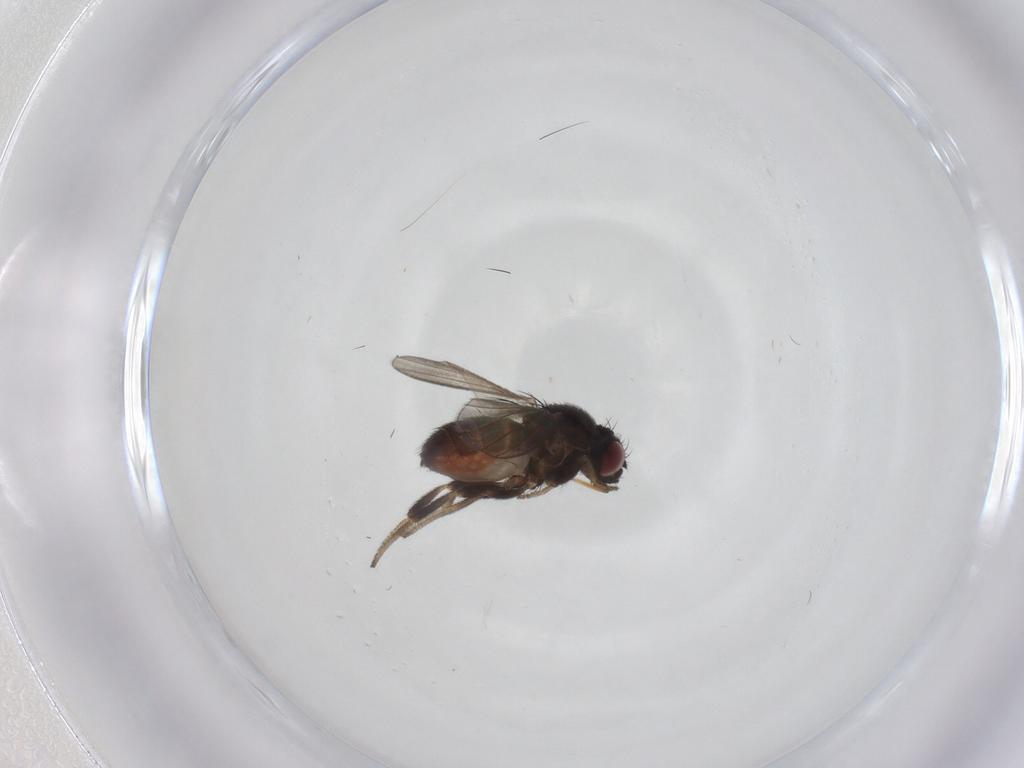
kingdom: Animalia
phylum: Arthropoda
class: Insecta
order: Diptera
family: Milichiidae
